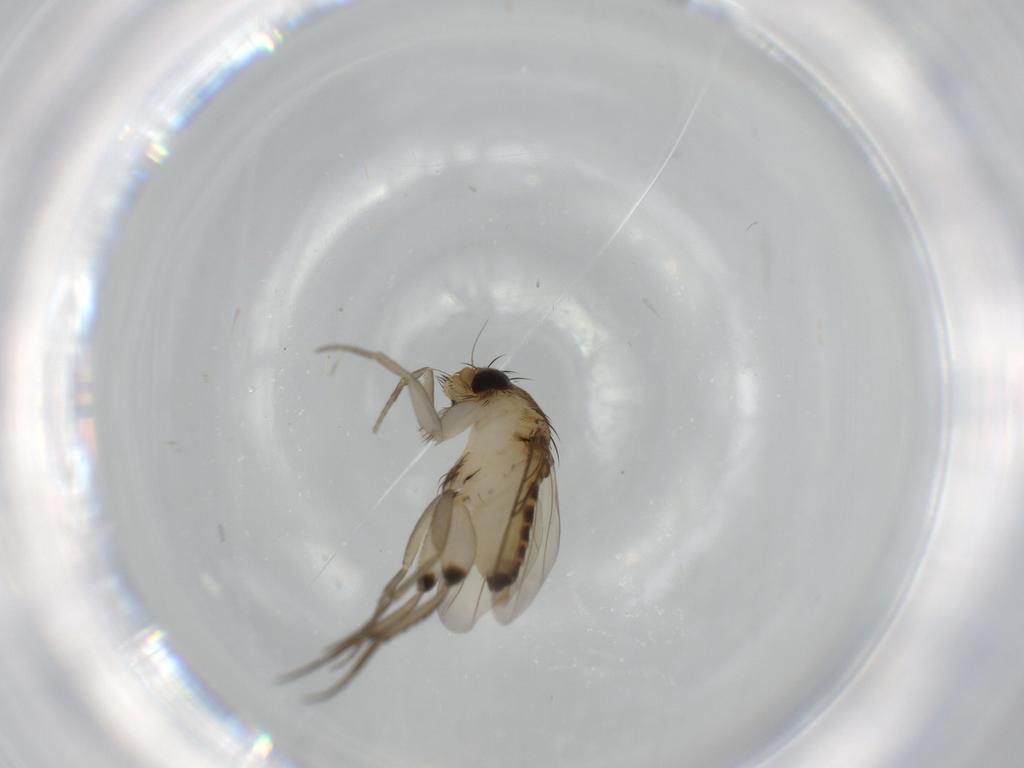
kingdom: Animalia
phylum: Arthropoda
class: Insecta
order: Diptera
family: Phoridae
